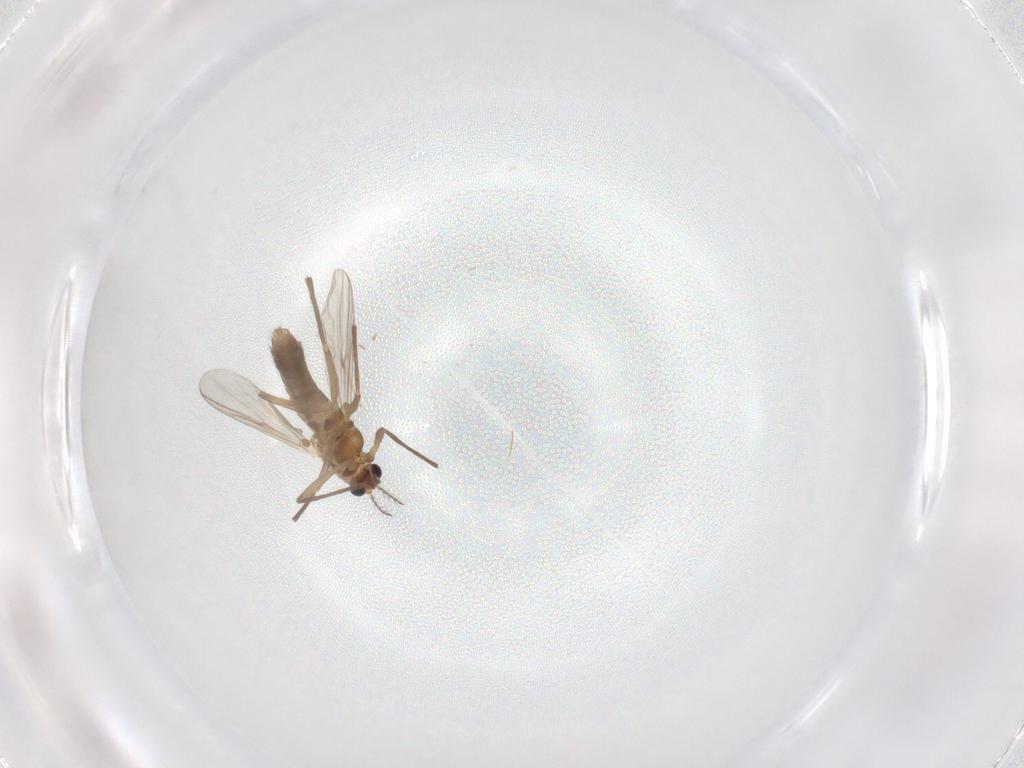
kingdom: Animalia
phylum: Arthropoda
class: Insecta
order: Diptera
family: Chironomidae
